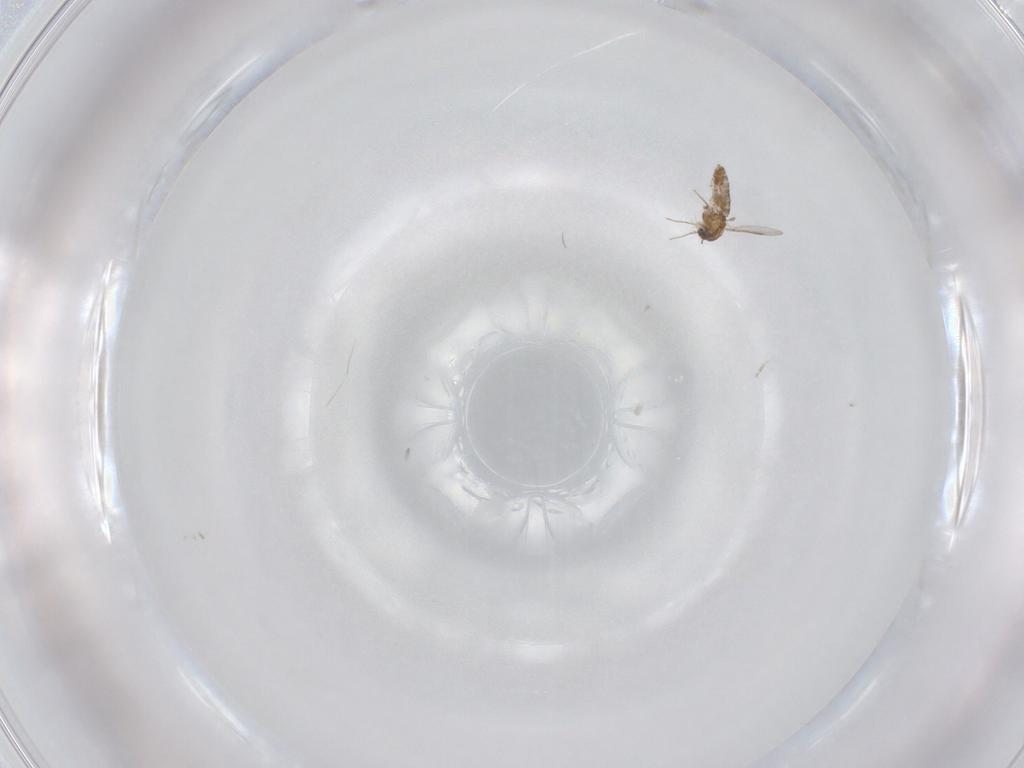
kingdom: Animalia
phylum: Arthropoda
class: Insecta
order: Diptera
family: Chironomidae
